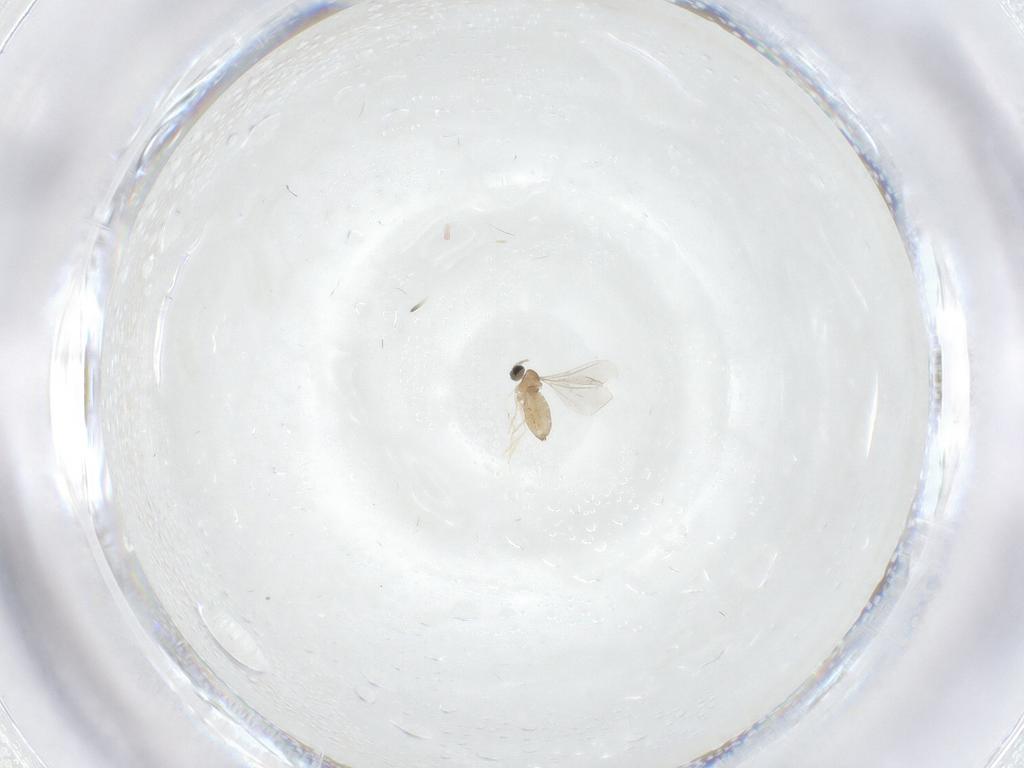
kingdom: Animalia
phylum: Arthropoda
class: Insecta
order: Diptera
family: Cecidomyiidae
